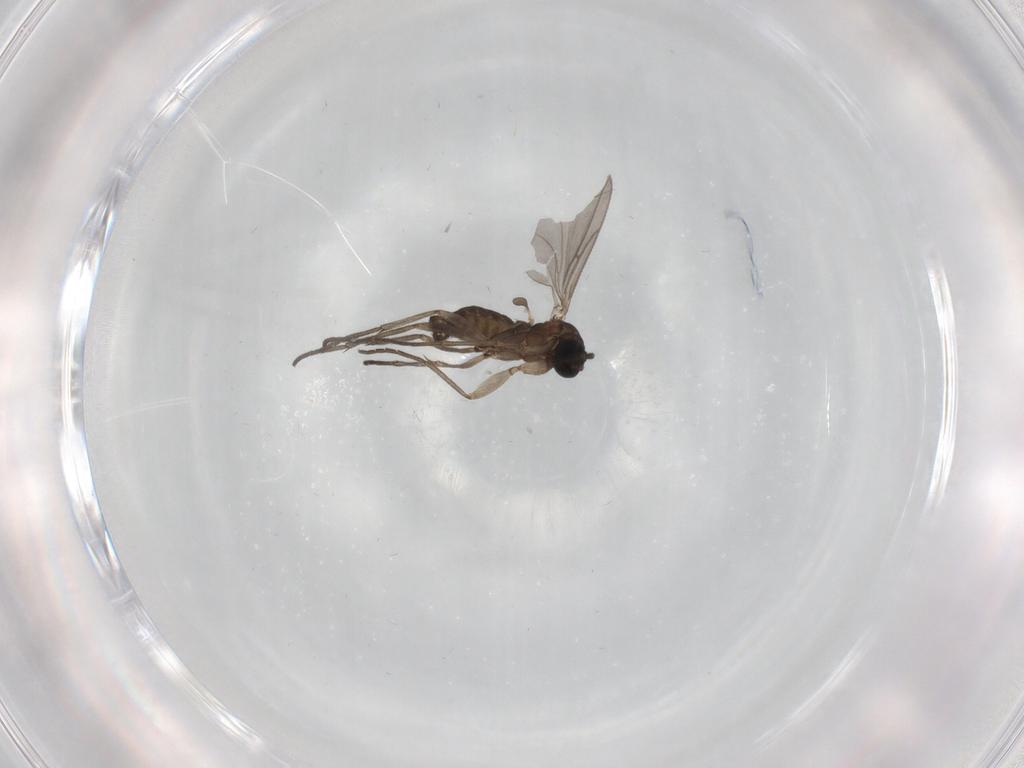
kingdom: Animalia
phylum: Arthropoda
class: Insecta
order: Diptera
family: Sciaridae
